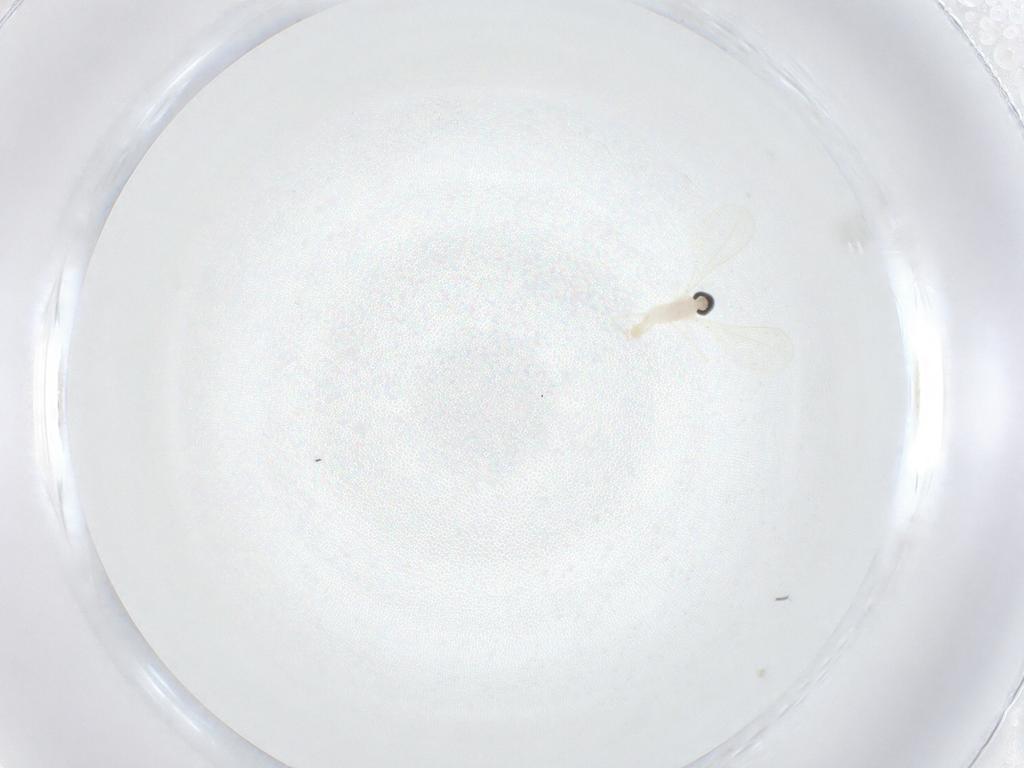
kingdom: Animalia
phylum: Arthropoda
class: Insecta
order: Diptera
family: Cecidomyiidae
